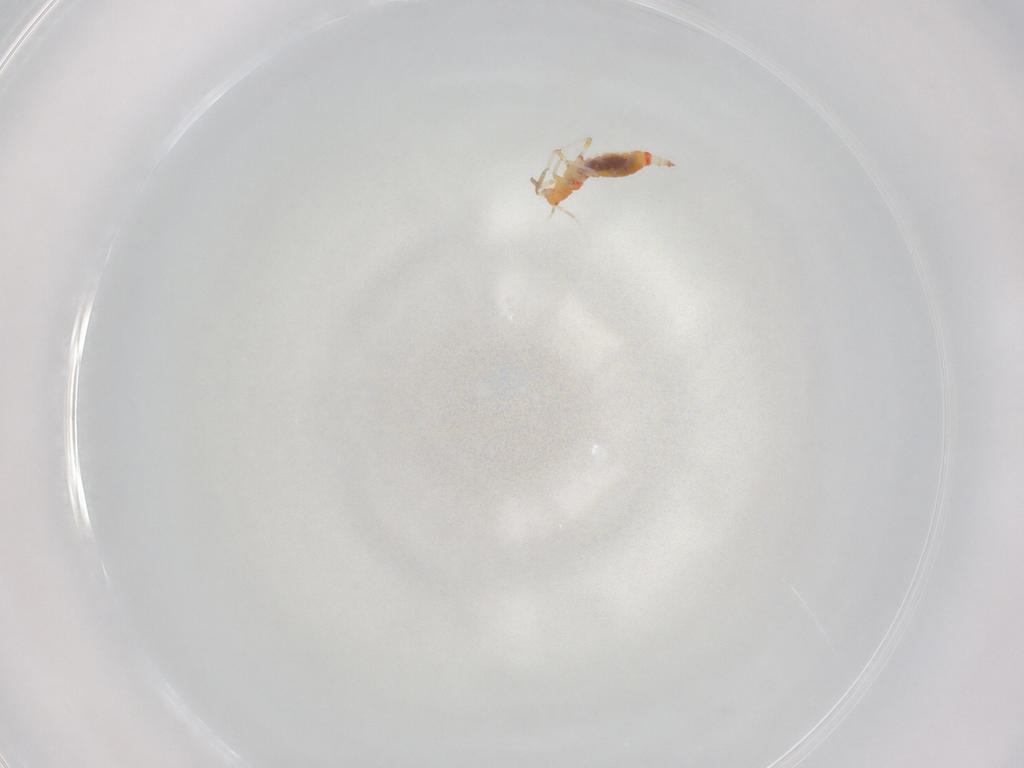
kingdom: Animalia
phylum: Arthropoda
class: Insecta
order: Thysanoptera
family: Aeolothripidae
